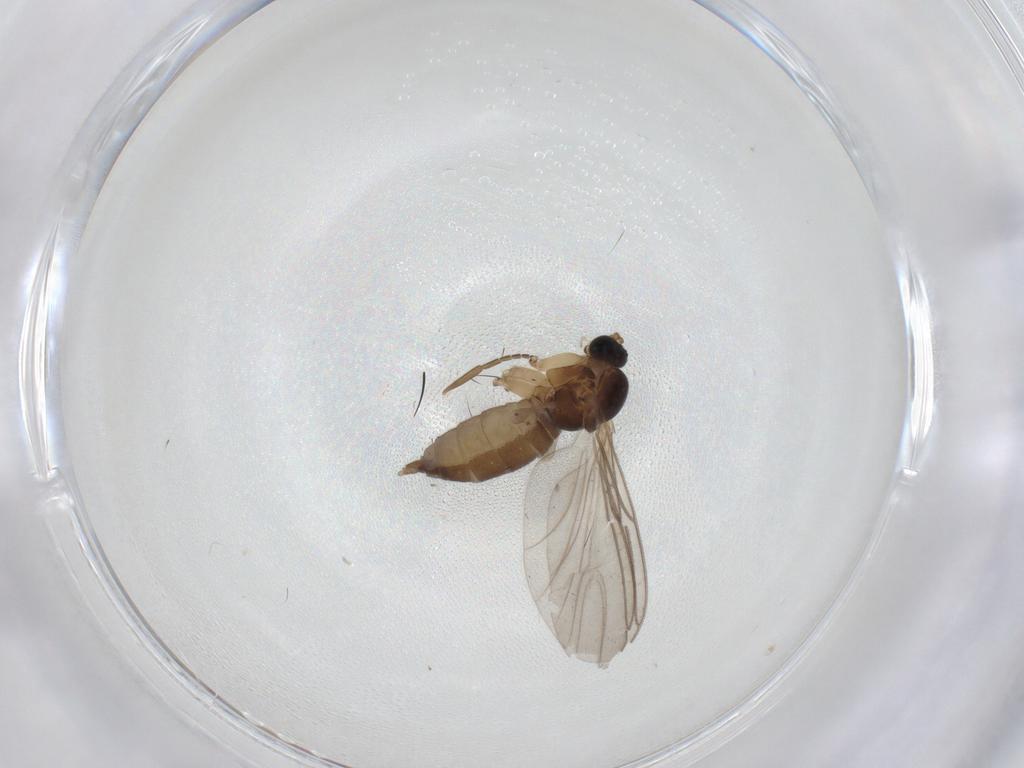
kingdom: Animalia
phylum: Arthropoda
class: Insecta
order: Diptera
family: Sciaridae
